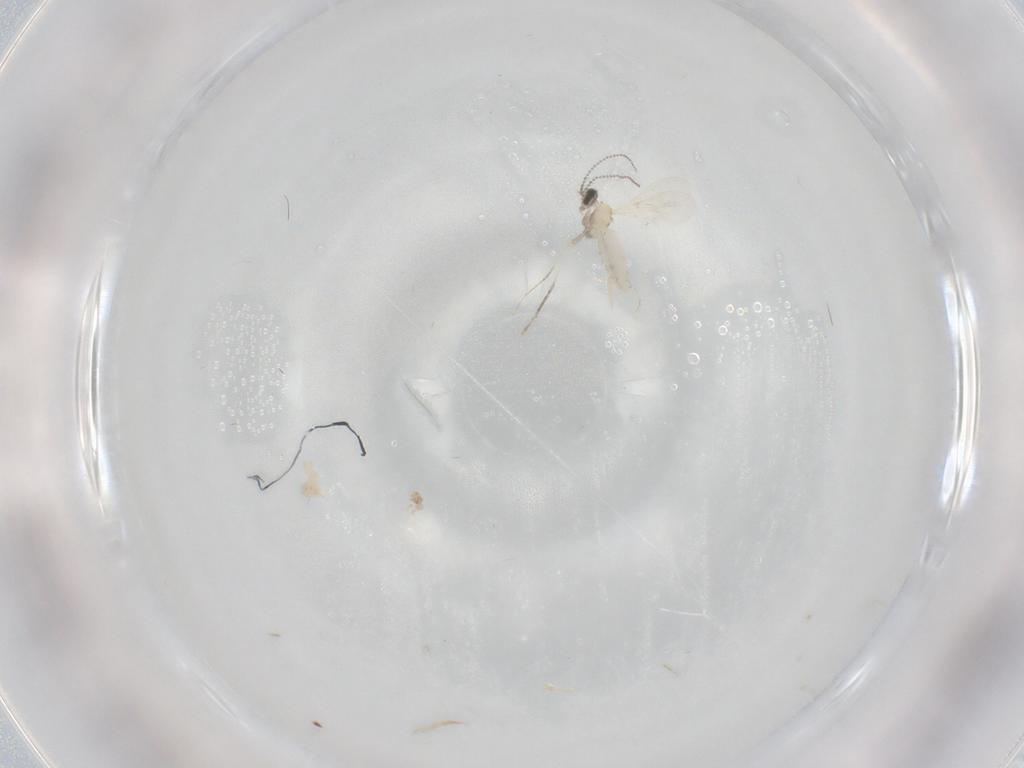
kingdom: Animalia
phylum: Arthropoda
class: Insecta
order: Diptera
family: Cecidomyiidae
